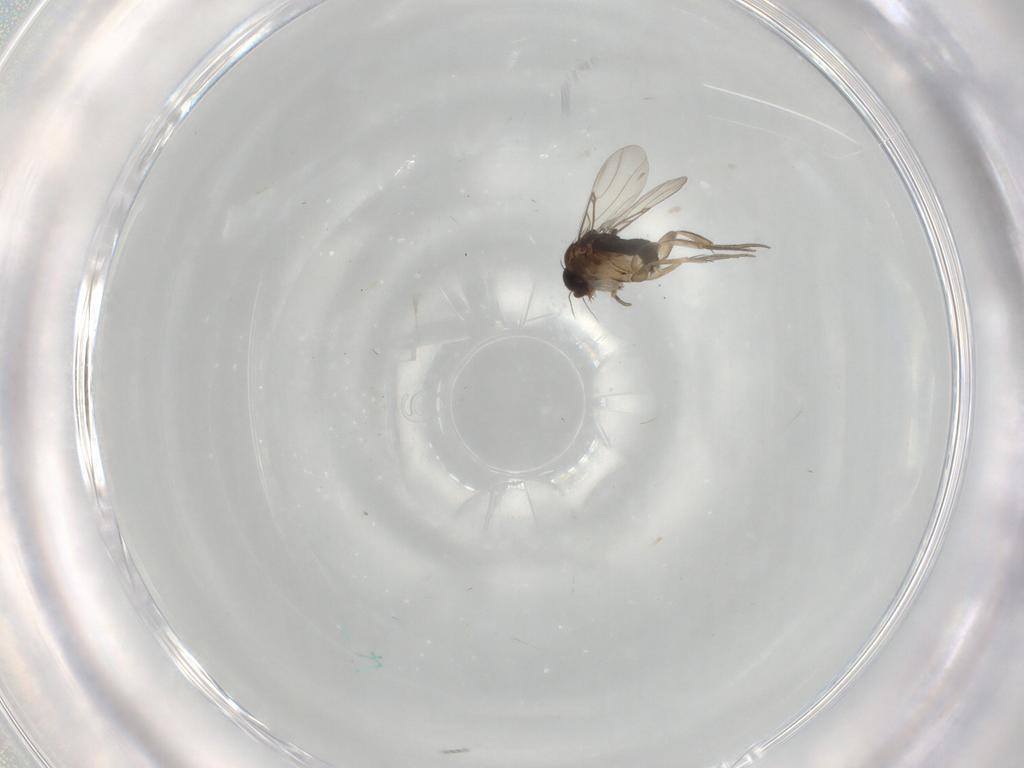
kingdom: Animalia
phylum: Arthropoda
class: Insecta
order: Diptera
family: Phoridae
